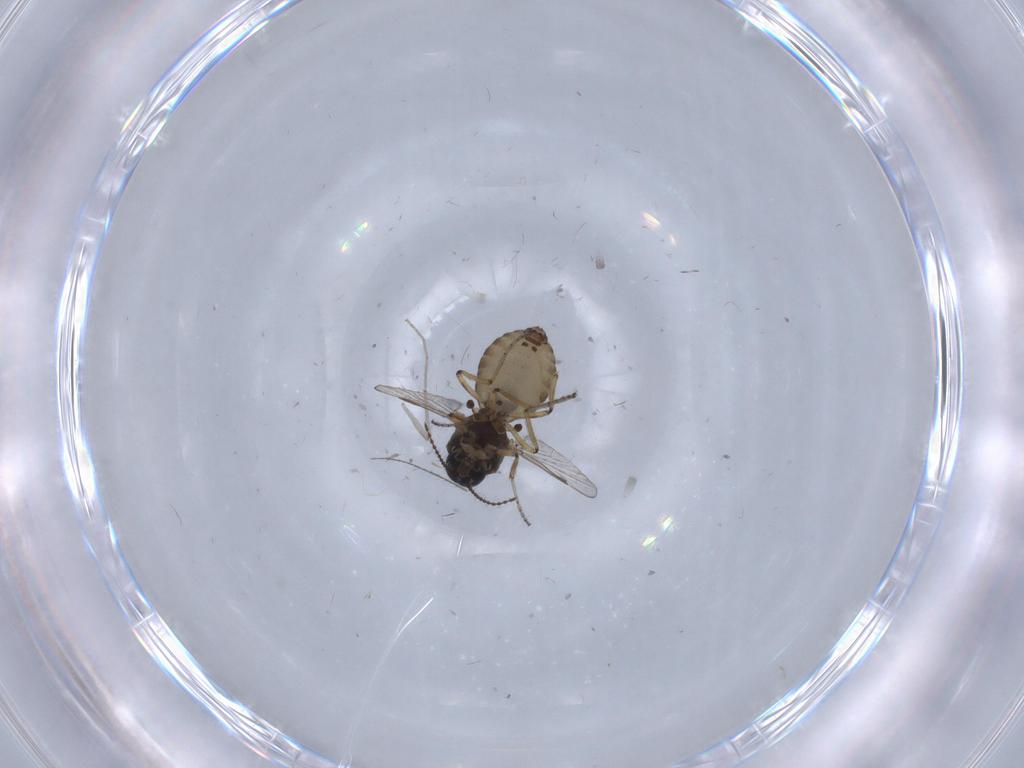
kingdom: Animalia
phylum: Arthropoda
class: Insecta
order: Diptera
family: Ceratopogonidae
